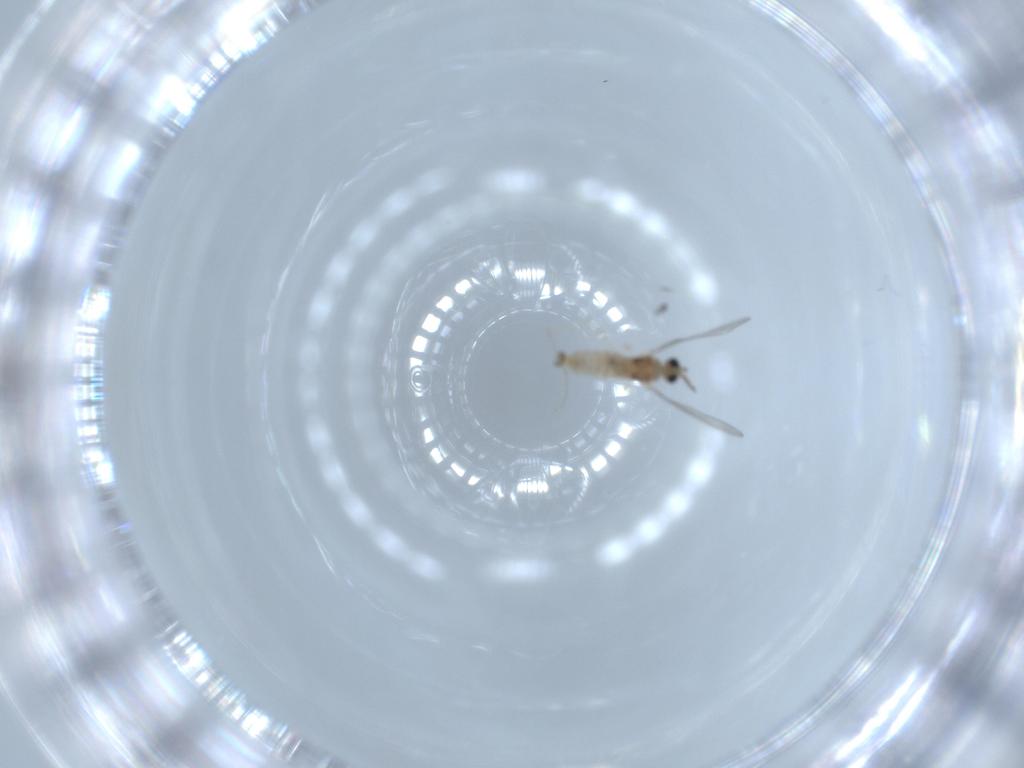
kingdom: Animalia
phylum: Arthropoda
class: Insecta
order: Diptera
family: Cecidomyiidae
